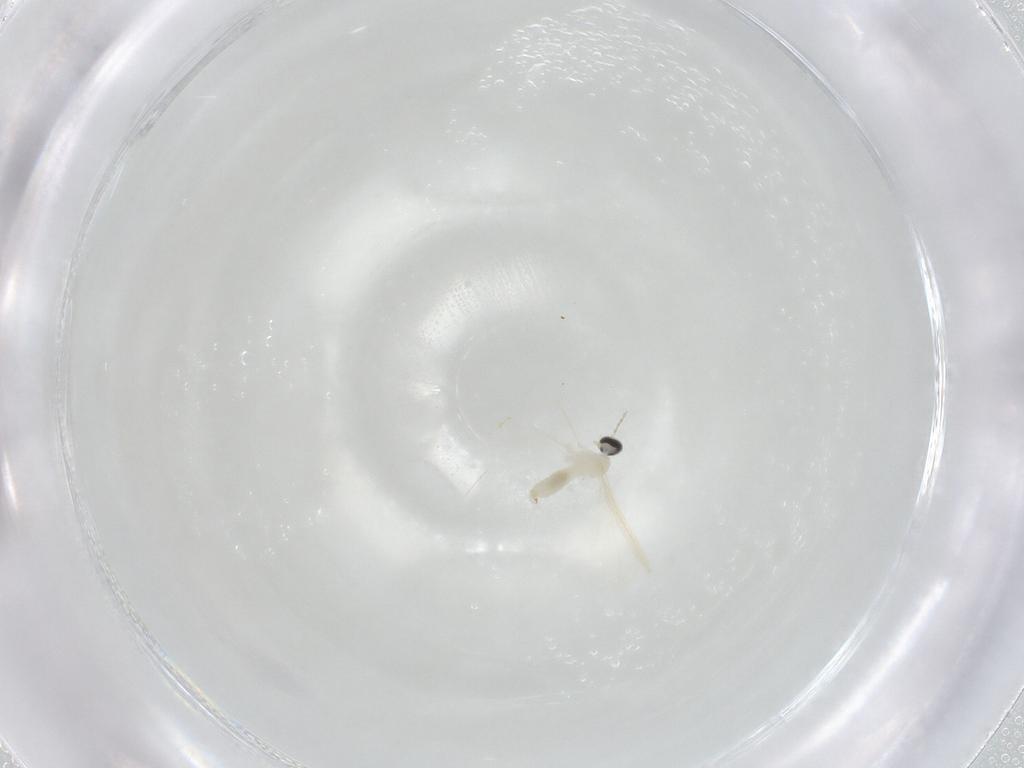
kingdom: Animalia
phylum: Arthropoda
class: Insecta
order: Diptera
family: Cecidomyiidae
